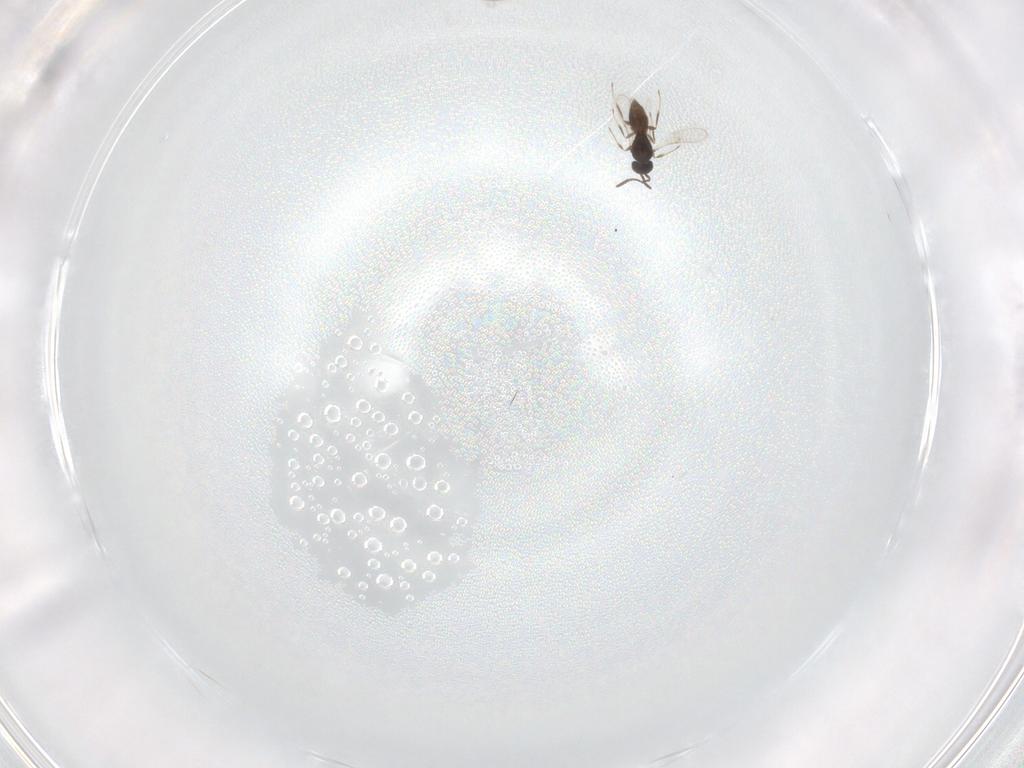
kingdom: Animalia
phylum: Arthropoda
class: Insecta
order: Hymenoptera
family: Scelionidae
